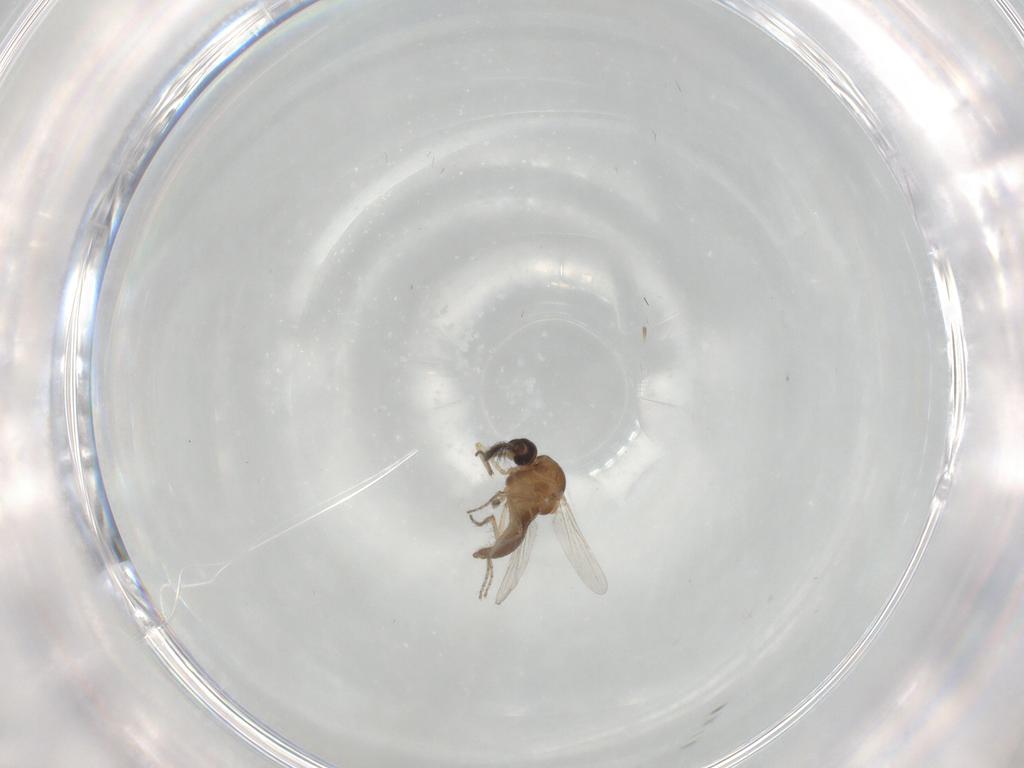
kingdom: Animalia
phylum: Arthropoda
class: Insecta
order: Diptera
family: Ceratopogonidae
